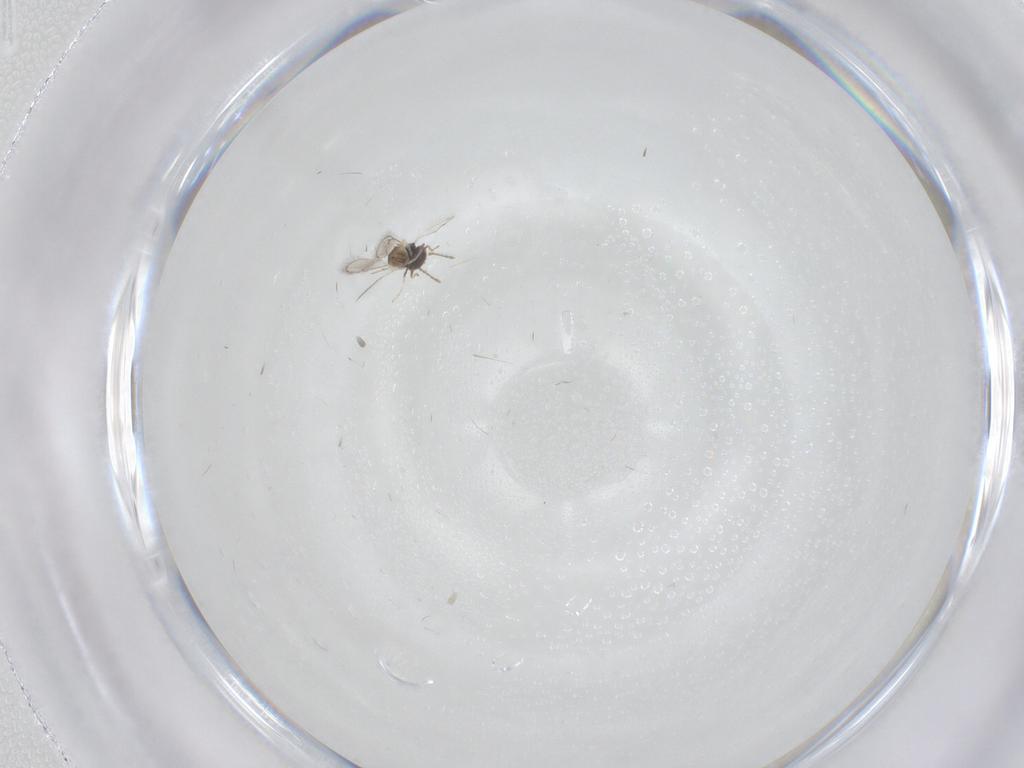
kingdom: Animalia
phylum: Arthropoda
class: Insecta
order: Diptera
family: Cecidomyiidae
